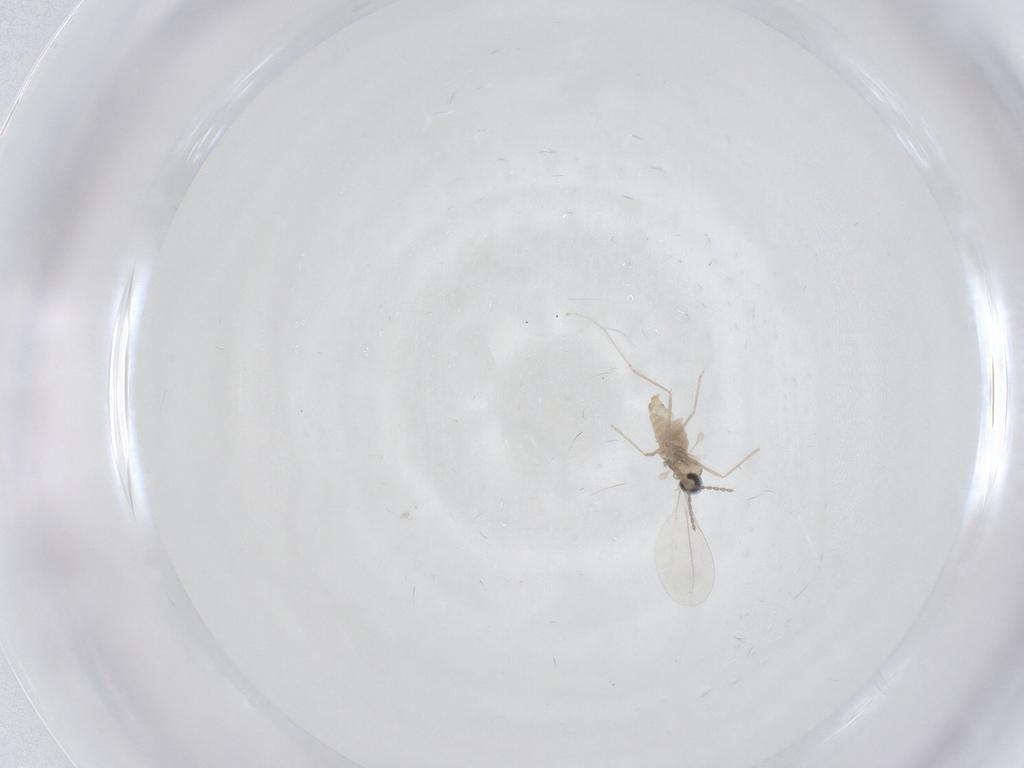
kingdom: Animalia
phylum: Arthropoda
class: Insecta
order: Diptera
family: Cecidomyiidae
